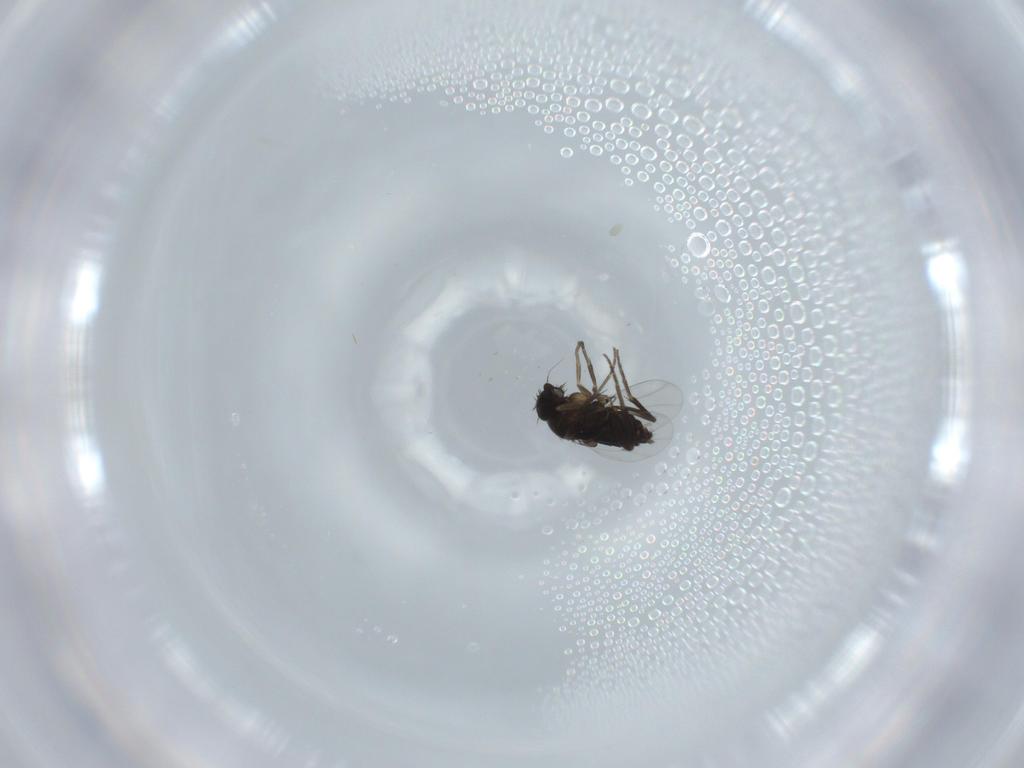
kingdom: Animalia
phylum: Arthropoda
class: Insecta
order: Diptera
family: Phoridae
